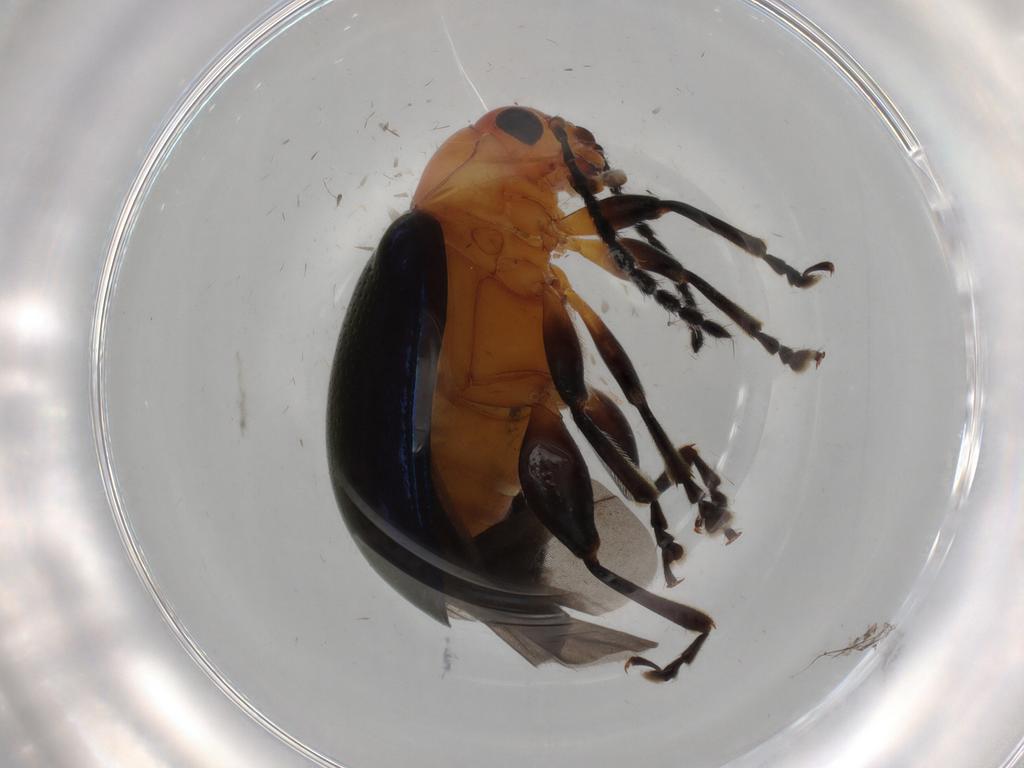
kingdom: Animalia
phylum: Arthropoda
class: Insecta
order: Coleoptera
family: Chrysomelidae
